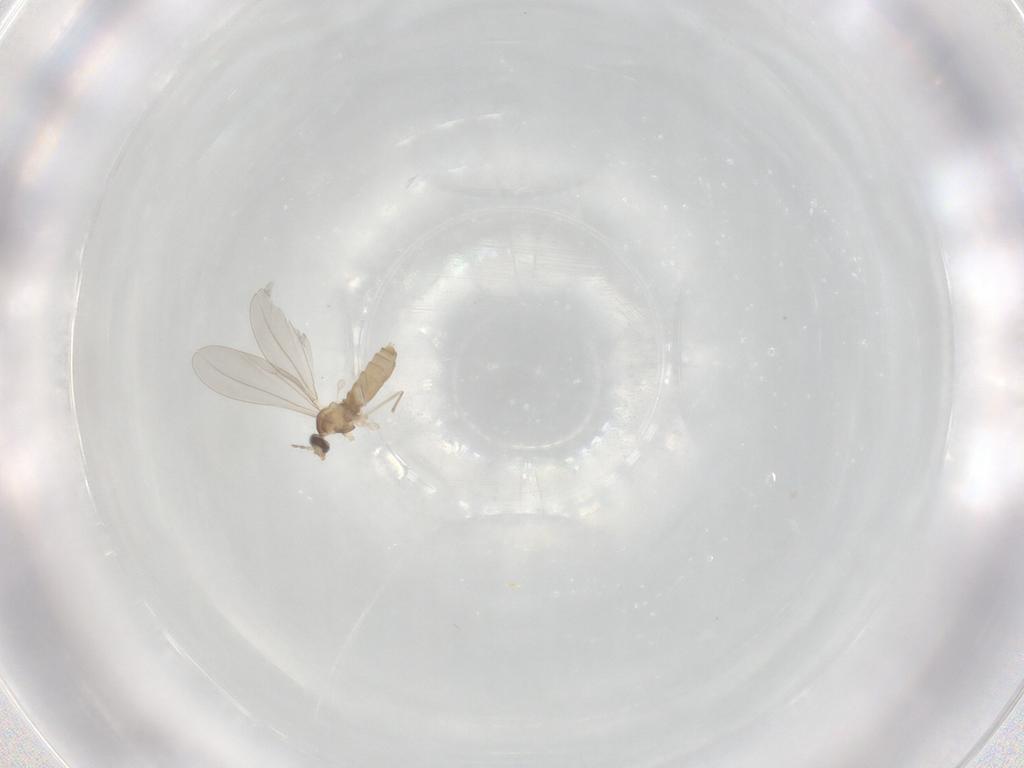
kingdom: Animalia
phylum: Arthropoda
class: Insecta
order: Diptera
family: Cecidomyiidae
